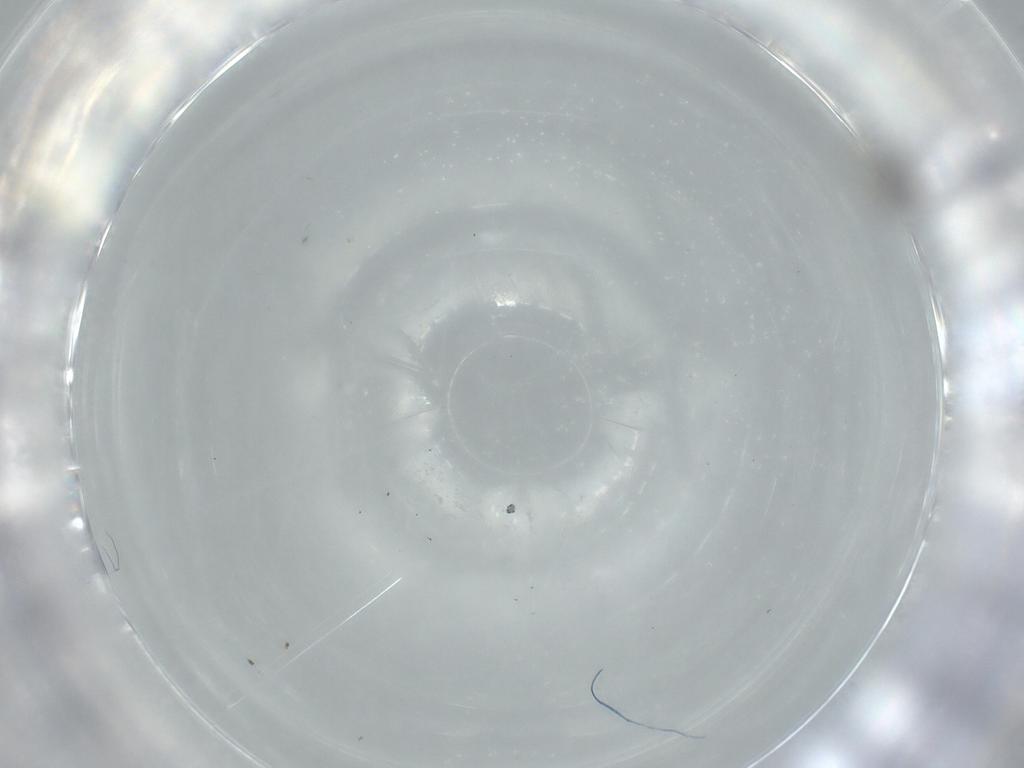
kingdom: Animalia
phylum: Arthropoda
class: Insecta
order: Diptera
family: Cecidomyiidae
